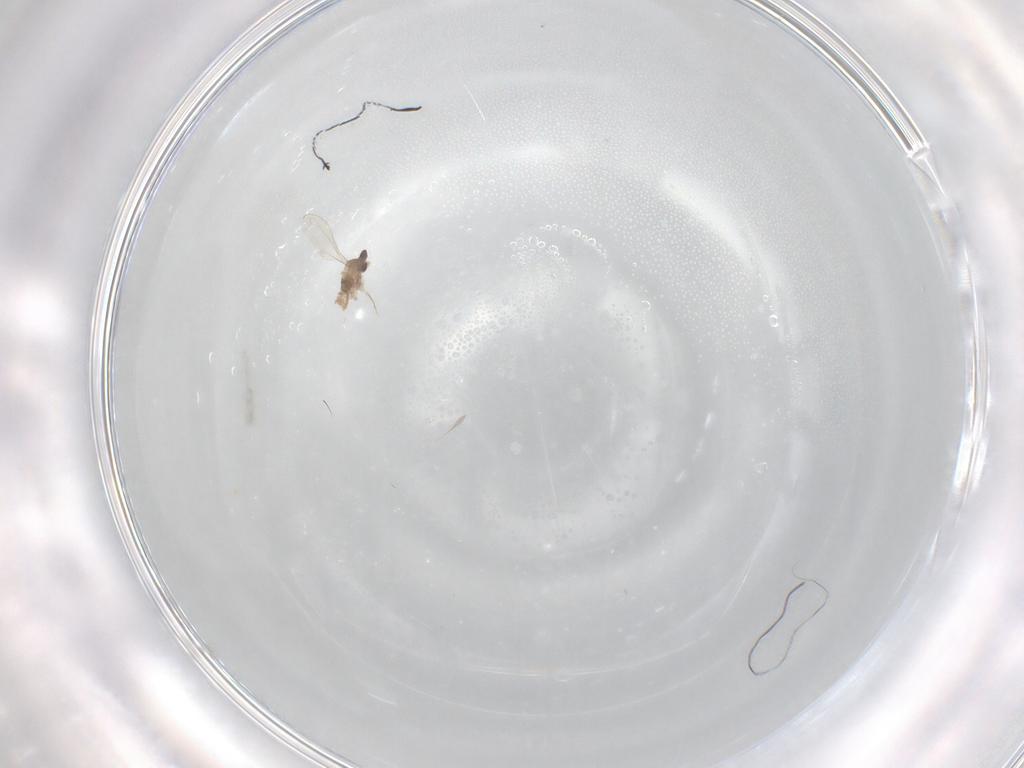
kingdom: Animalia
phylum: Arthropoda
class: Insecta
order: Diptera
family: Cecidomyiidae
